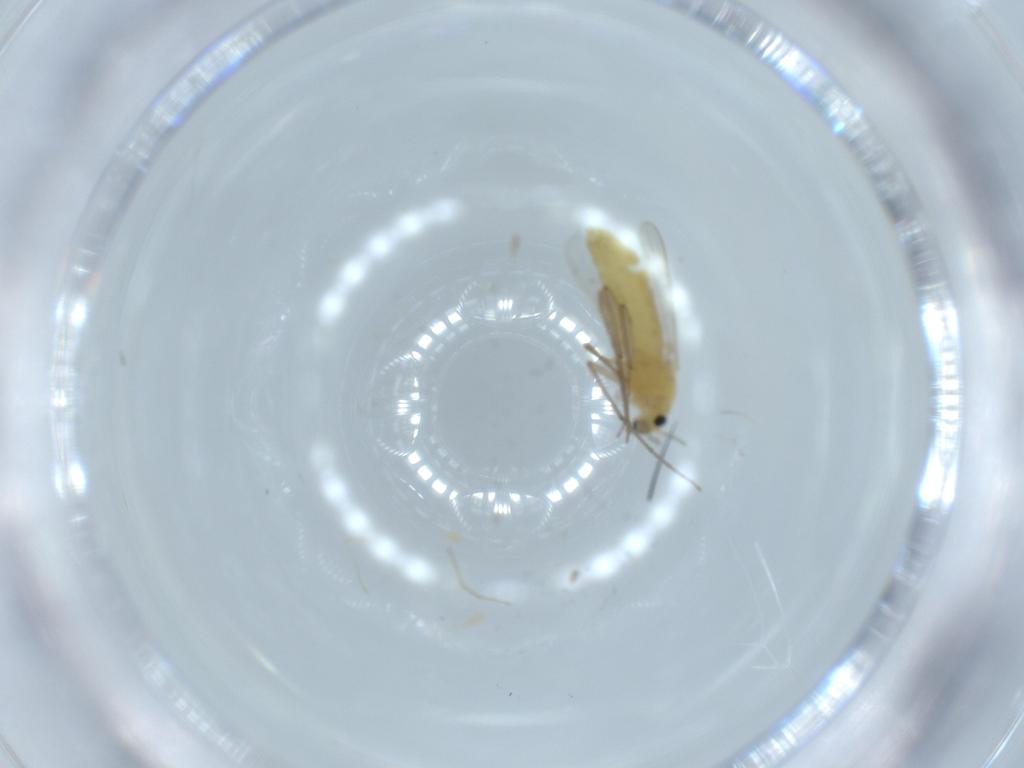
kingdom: Animalia
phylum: Arthropoda
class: Insecta
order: Diptera
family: Chironomidae
